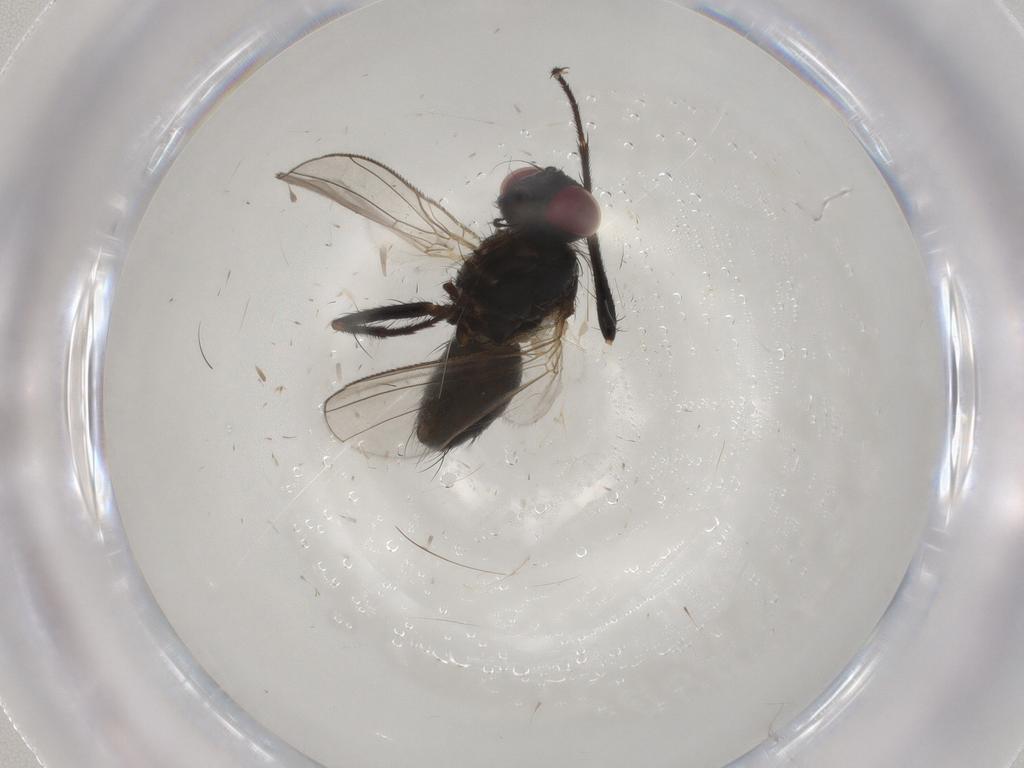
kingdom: Animalia
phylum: Arthropoda
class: Insecta
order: Diptera
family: Muscidae
